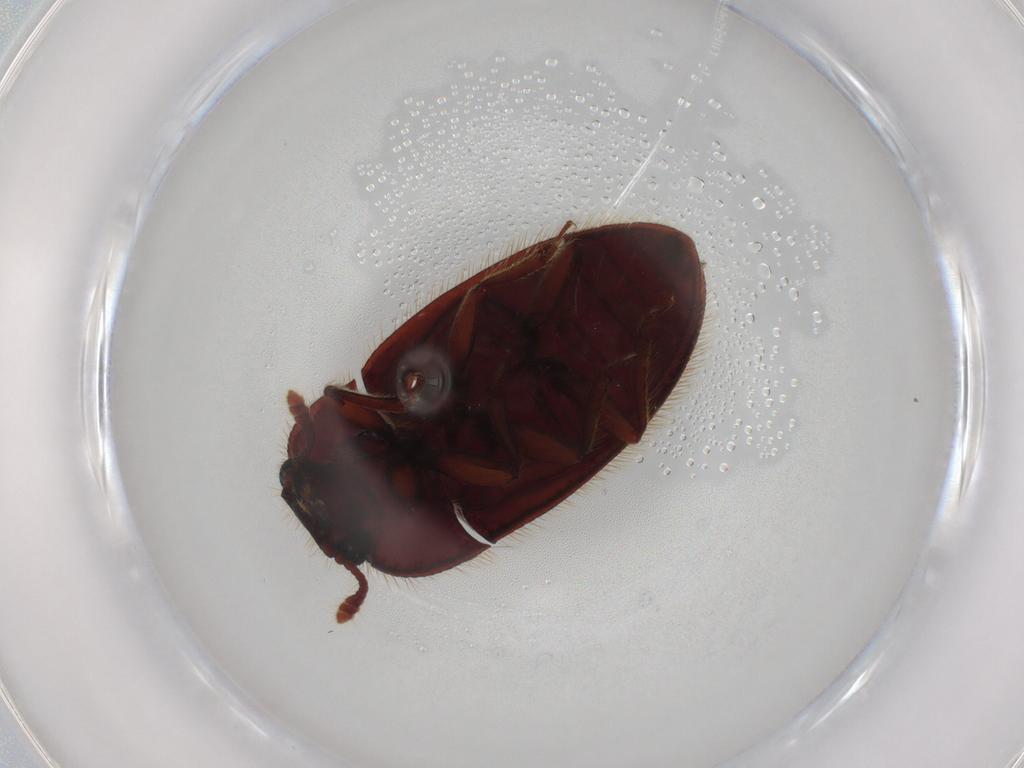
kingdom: Animalia
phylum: Arthropoda
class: Insecta
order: Coleoptera
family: Biphyllidae
